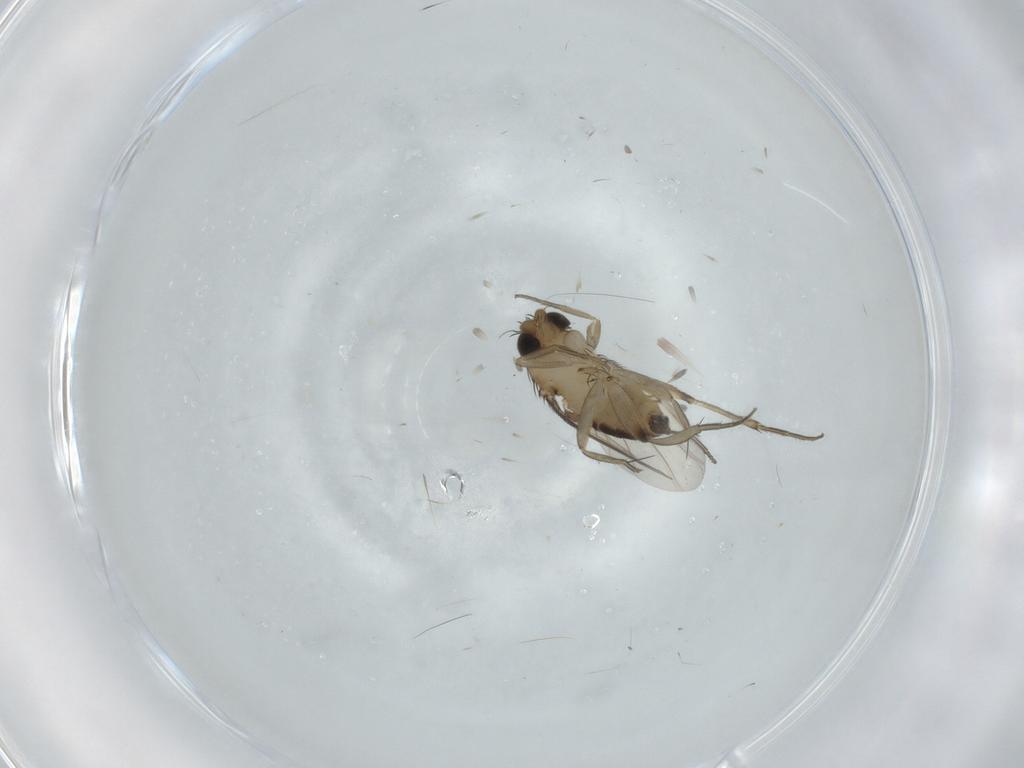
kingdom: Animalia
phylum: Arthropoda
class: Insecta
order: Diptera
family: Phoridae
